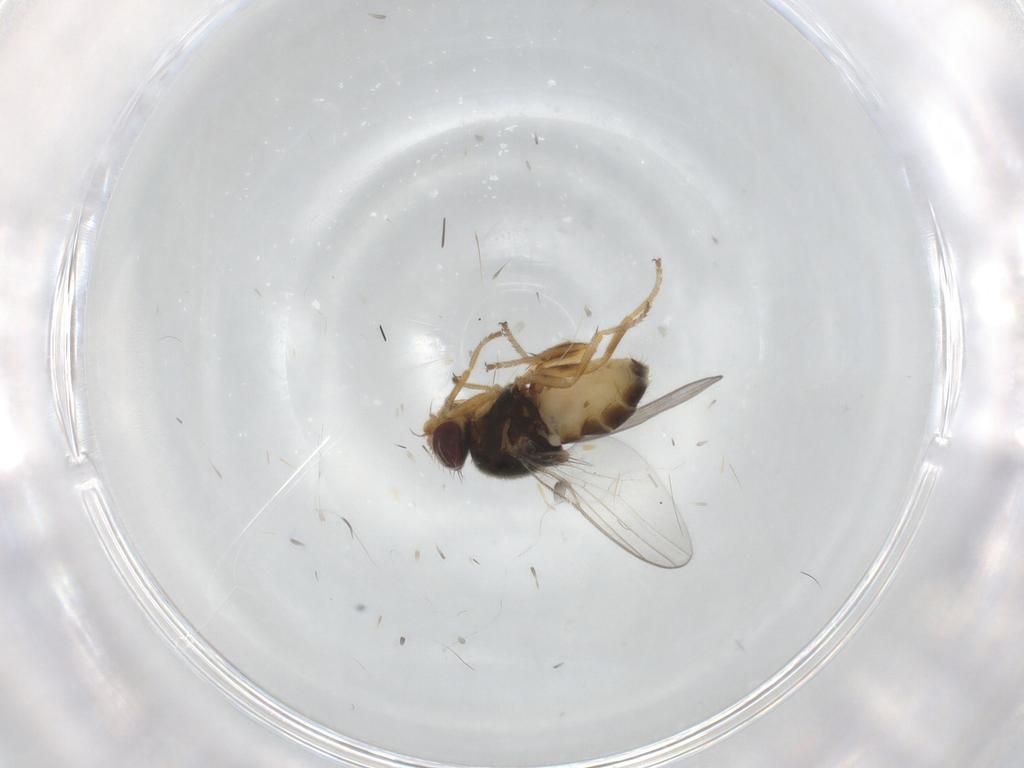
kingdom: Animalia
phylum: Arthropoda
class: Insecta
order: Diptera
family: Chloropidae
